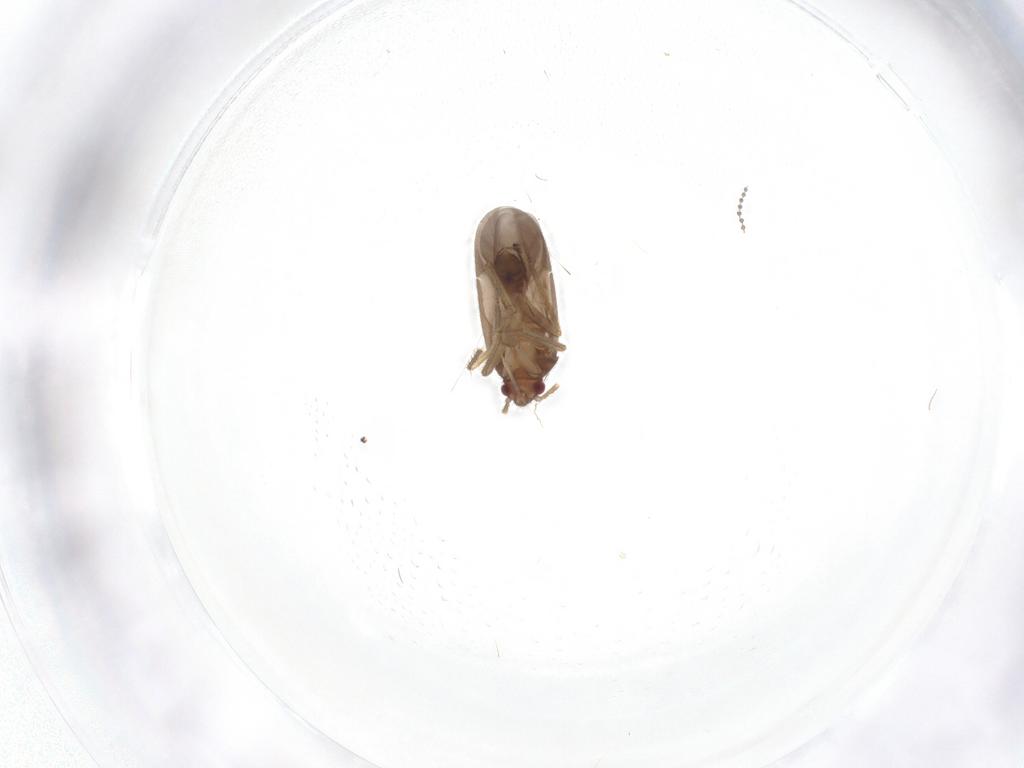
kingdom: Animalia
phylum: Arthropoda
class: Insecta
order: Hemiptera
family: Ceratocombidae
